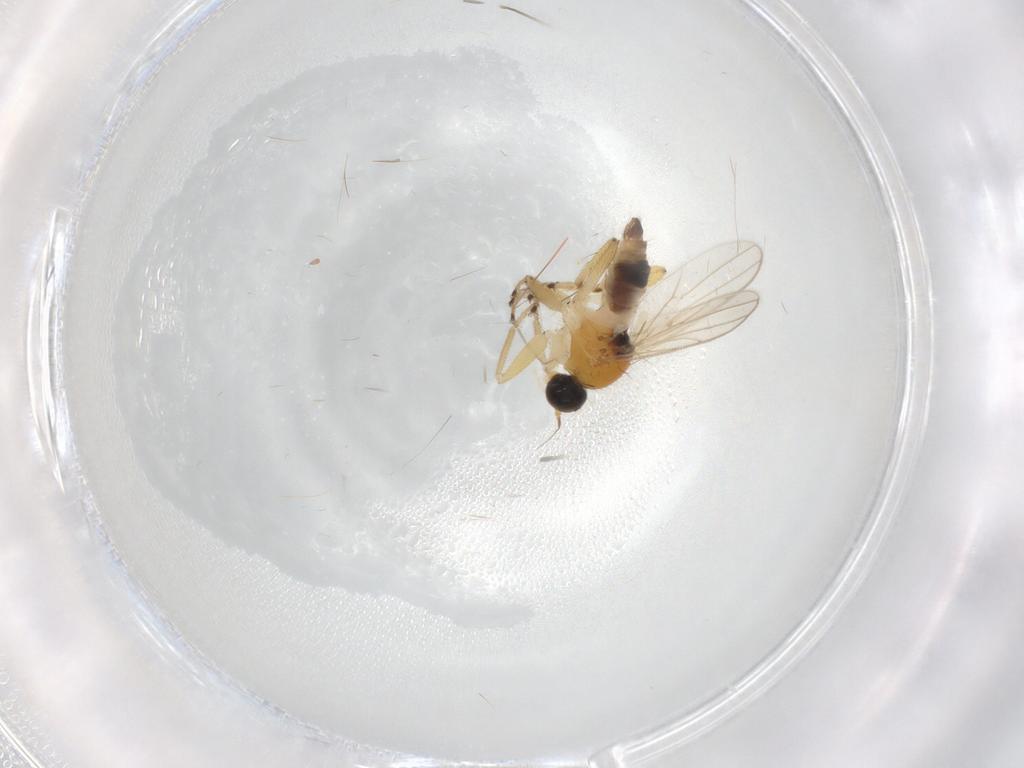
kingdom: Animalia
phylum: Arthropoda
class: Insecta
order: Diptera
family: Hybotidae
